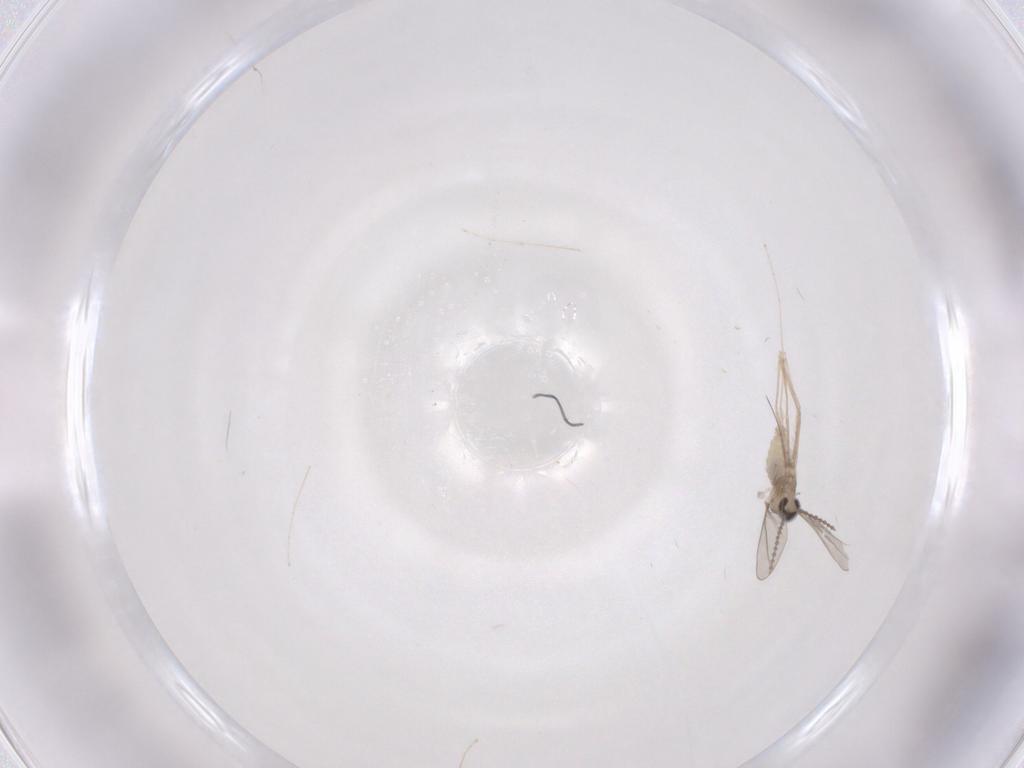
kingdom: Animalia
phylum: Arthropoda
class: Insecta
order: Diptera
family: Cecidomyiidae
